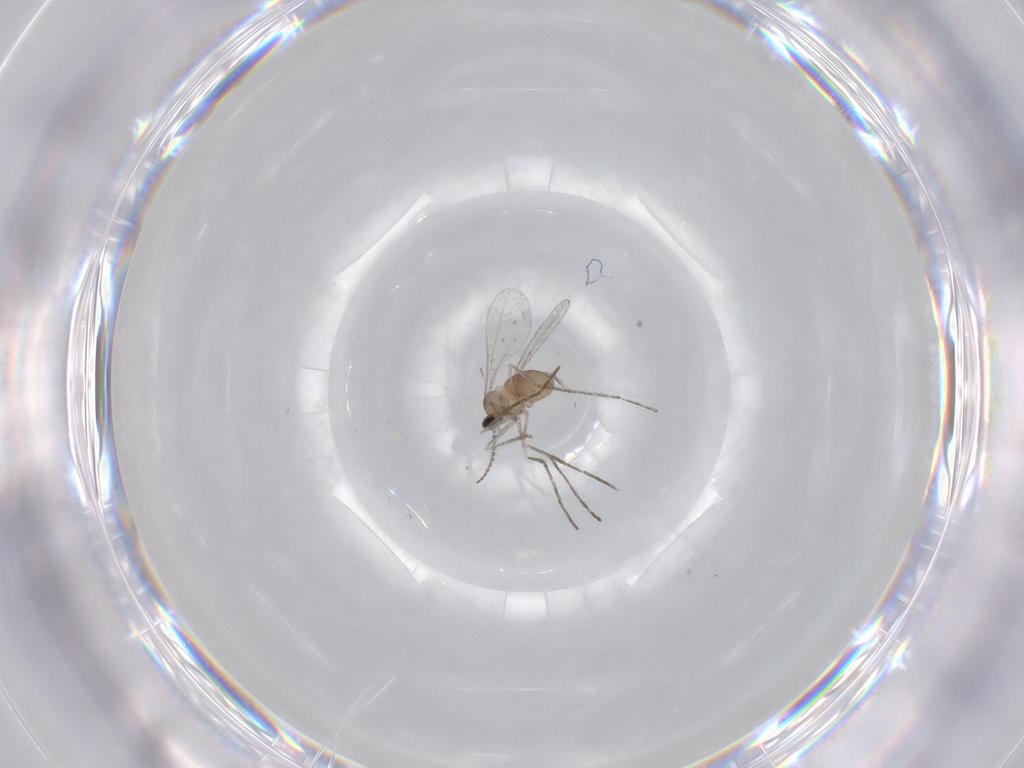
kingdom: Animalia
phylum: Arthropoda
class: Insecta
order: Diptera
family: Cecidomyiidae
